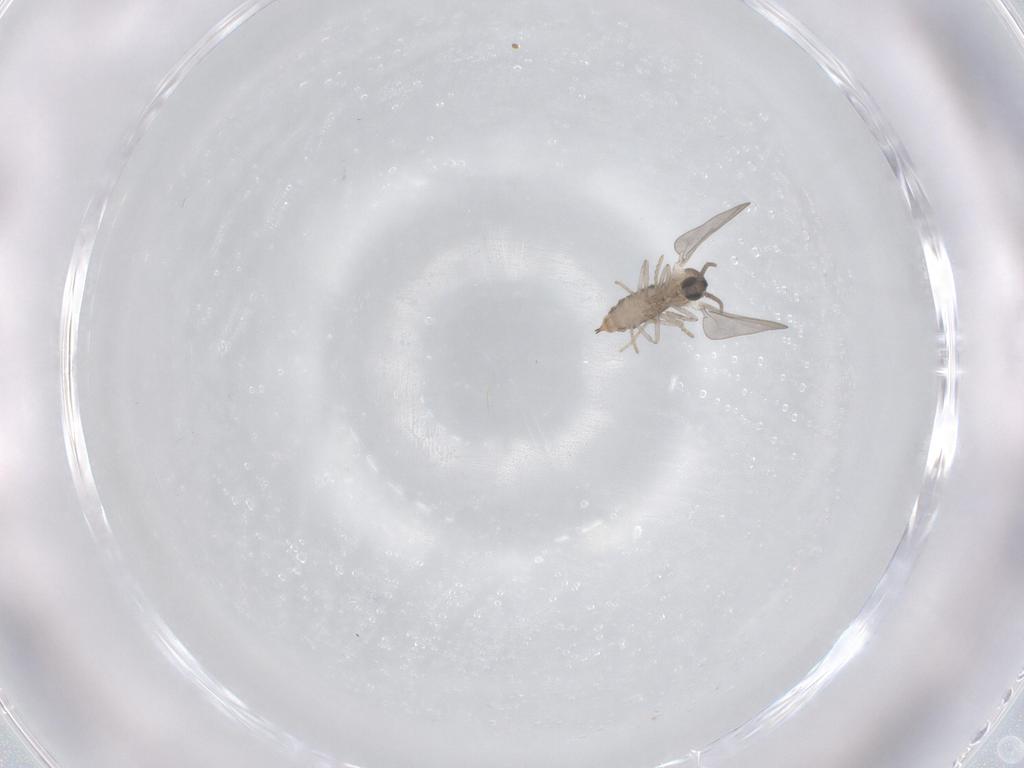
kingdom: Animalia
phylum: Arthropoda
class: Insecta
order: Diptera
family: Cecidomyiidae
